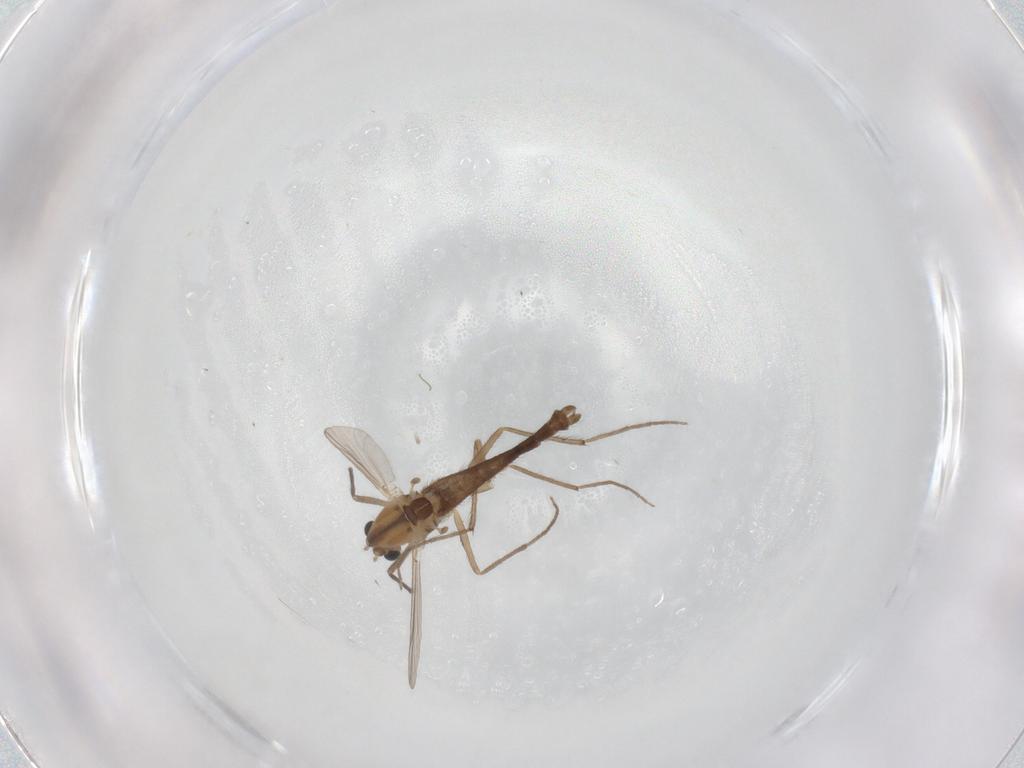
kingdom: Animalia
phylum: Arthropoda
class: Insecta
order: Diptera
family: Chironomidae
